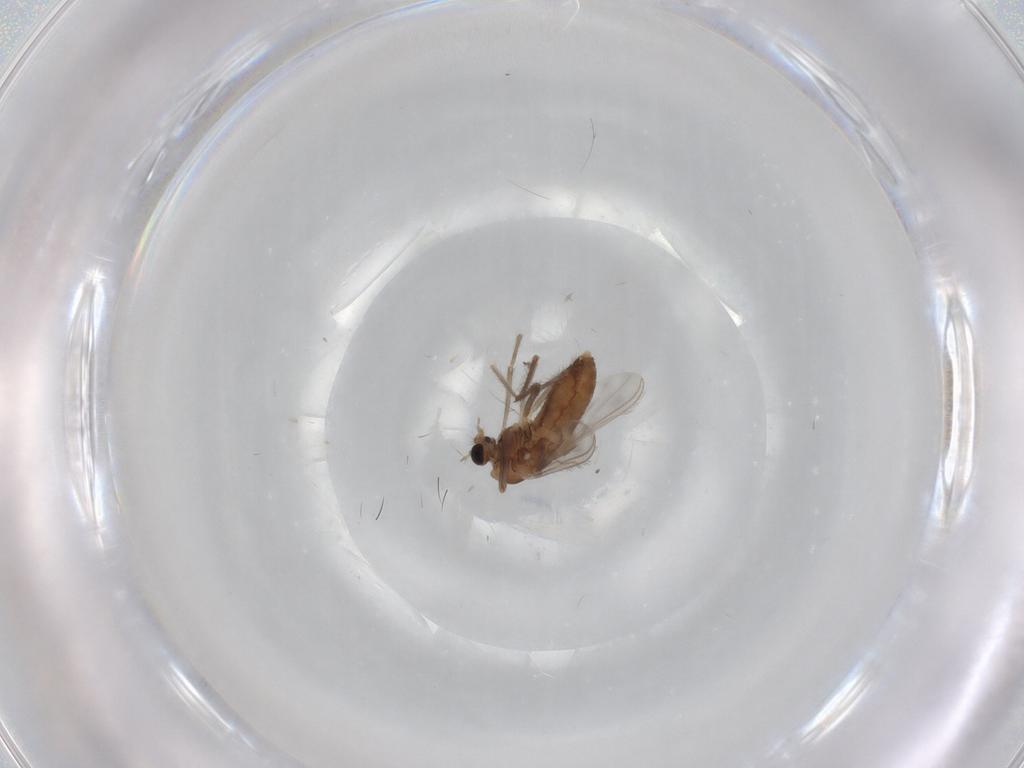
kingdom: Animalia
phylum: Arthropoda
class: Insecta
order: Diptera
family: Chironomidae
